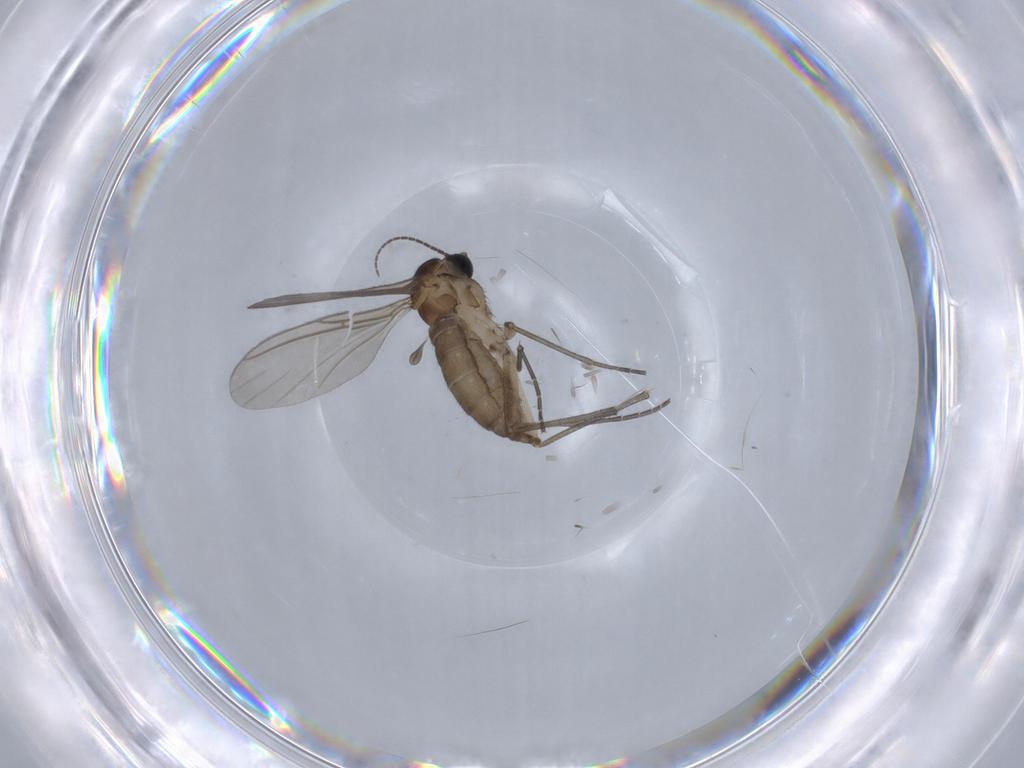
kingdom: Animalia
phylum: Arthropoda
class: Insecta
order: Diptera
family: Sciaridae
